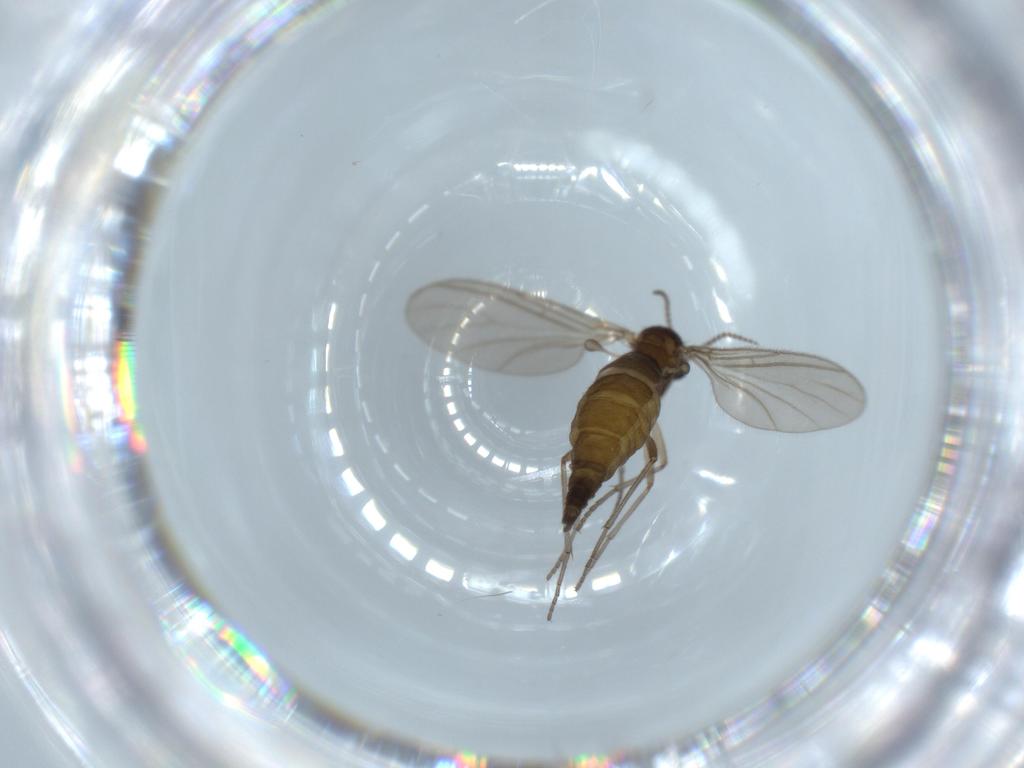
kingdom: Animalia
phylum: Arthropoda
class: Insecta
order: Diptera
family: Sciaridae
